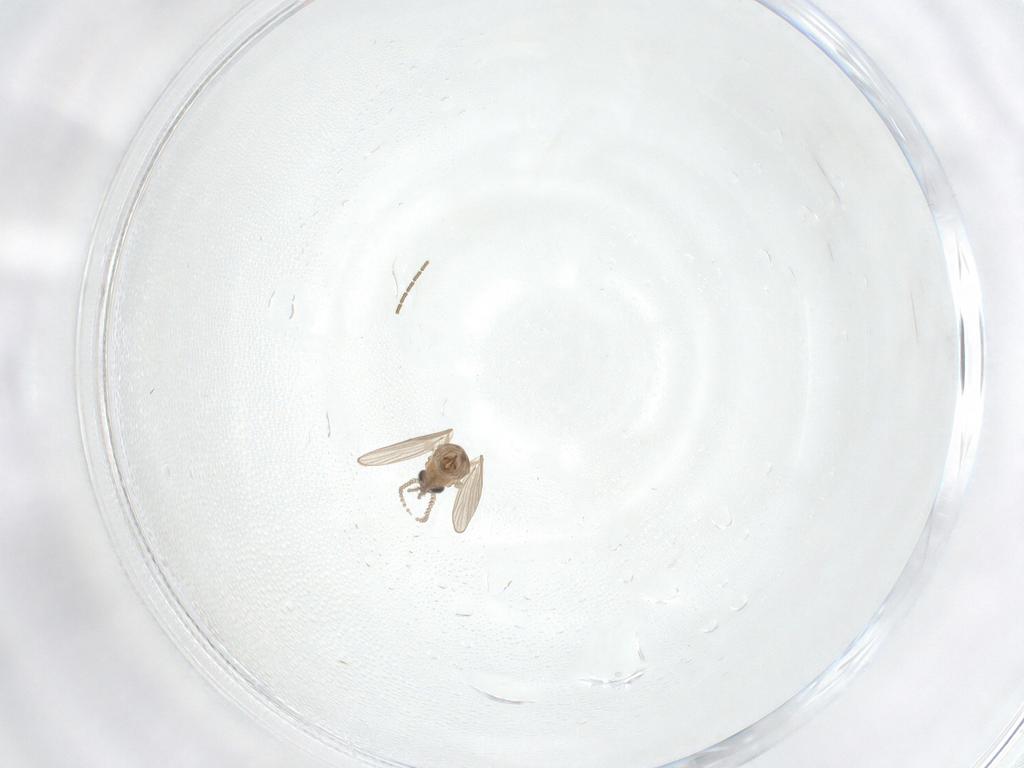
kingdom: Animalia
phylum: Arthropoda
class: Insecta
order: Diptera
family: Psychodidae
